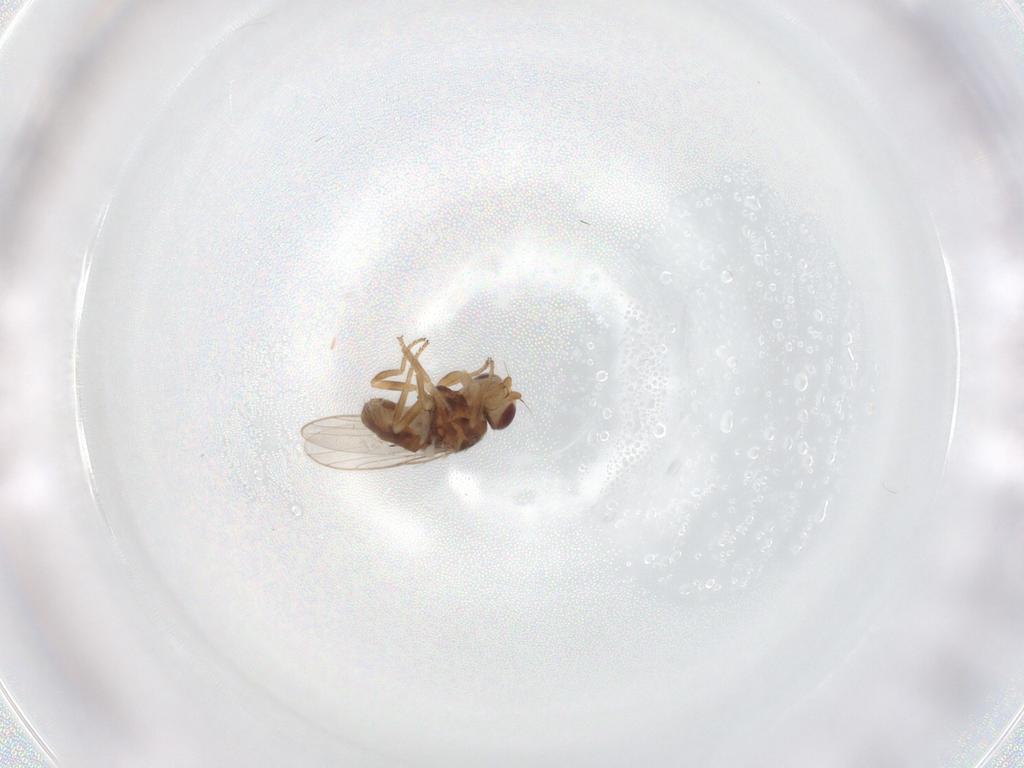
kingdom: Animalia
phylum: Arthropoda
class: Insecta
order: Diptera
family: Chloropidae
